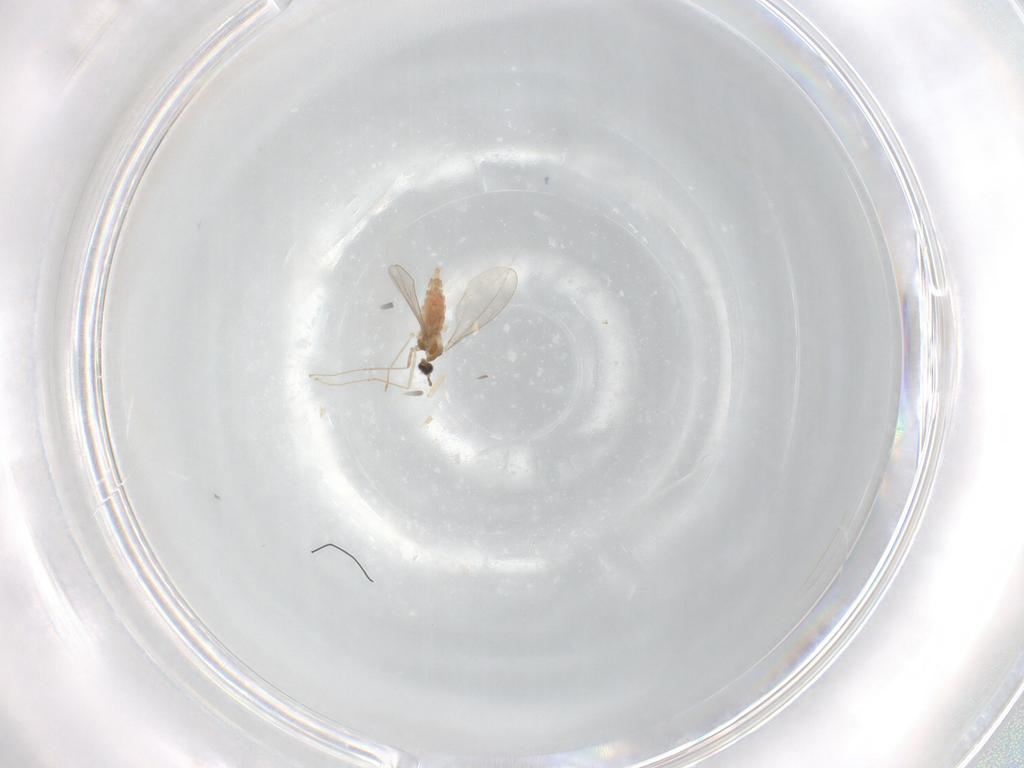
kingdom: Animalia
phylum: Arthropoda
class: Insecta
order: Diptera
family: Cecidomyiidae
